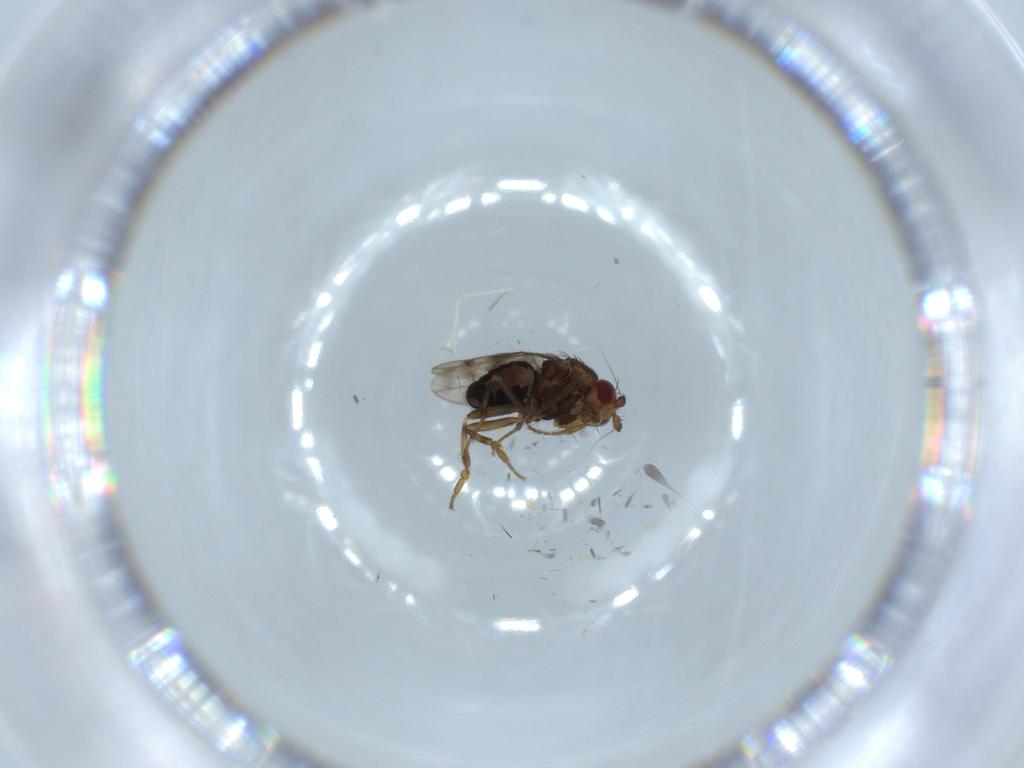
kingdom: Animalia
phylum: Arthropoda
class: Insecta
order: Diptera
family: Sphaeroceridae
